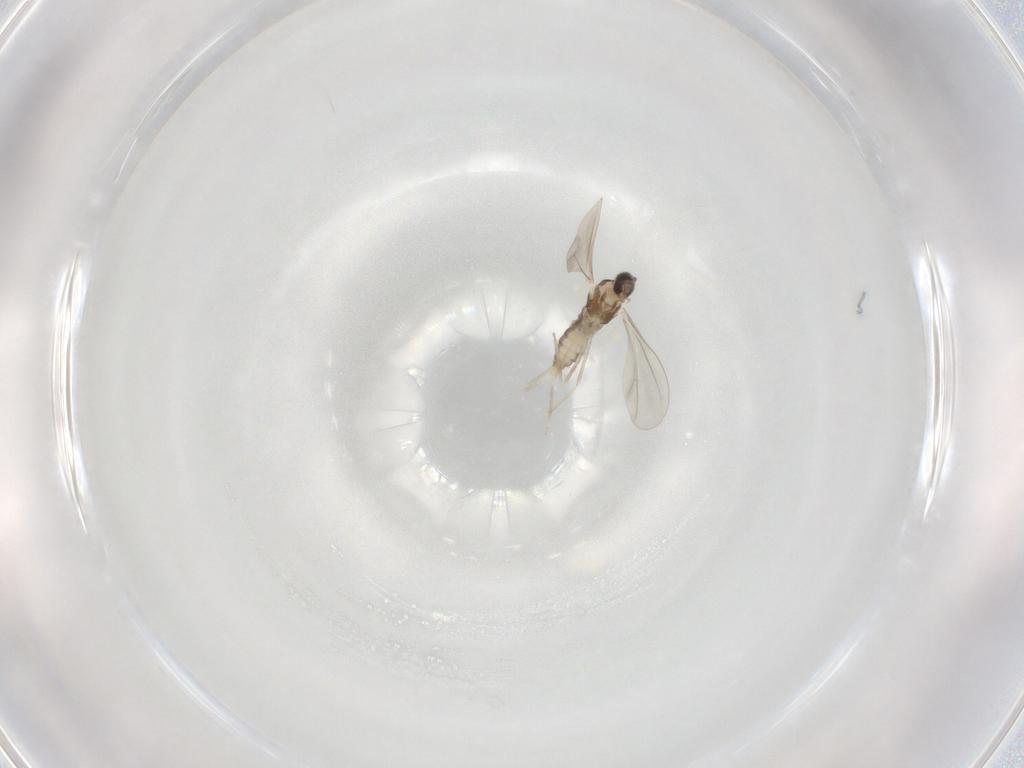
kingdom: Animalia
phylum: Arthropoda
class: Insecta
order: Diptera
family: Cecidomyiidae
